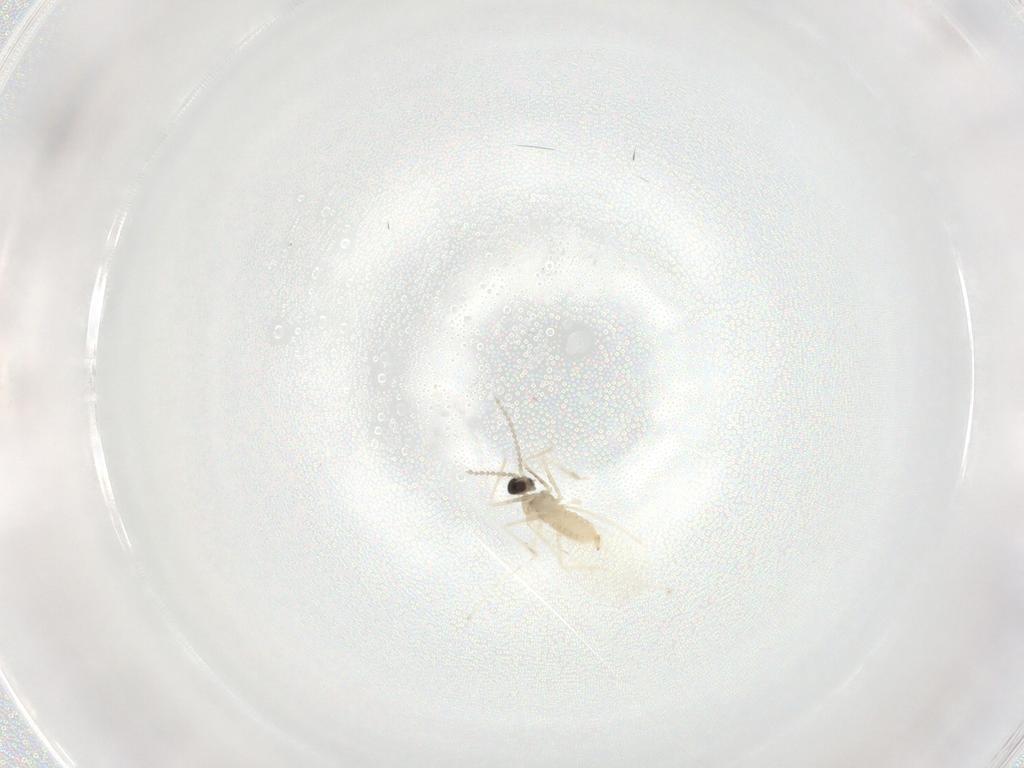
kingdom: Animalia
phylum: Arthropoda
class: Insecta
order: Diptera
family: Cecidomyiidae
